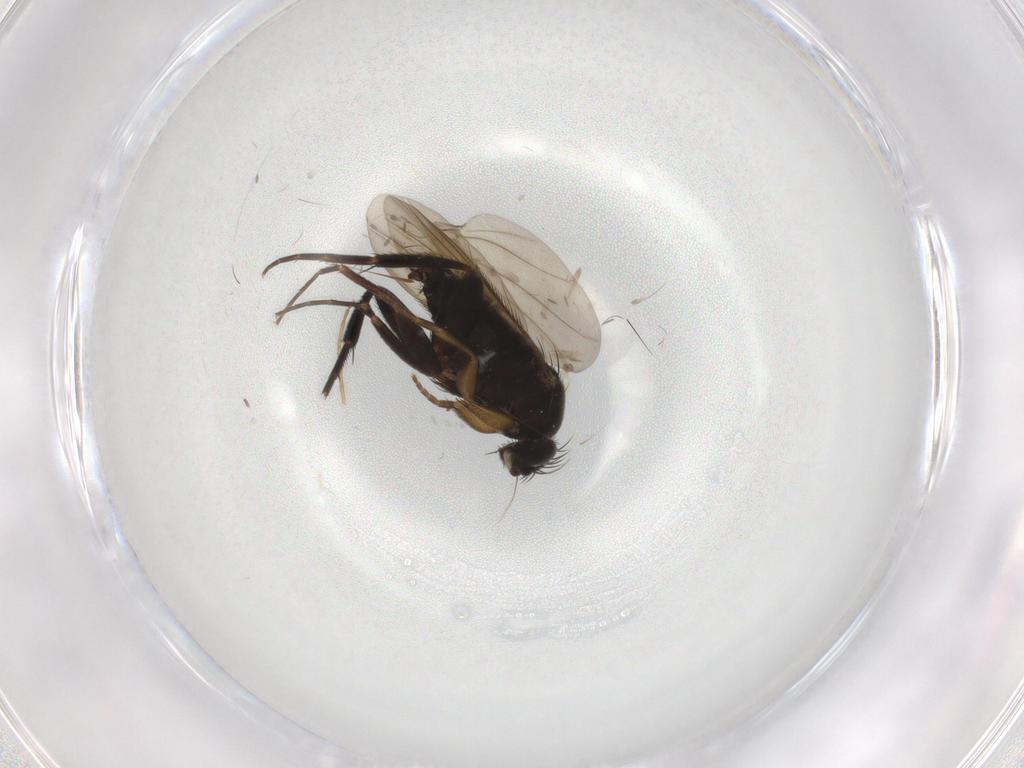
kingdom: Animalia
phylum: Arthropoda
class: Insecta
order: Diptera
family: Phoridae
